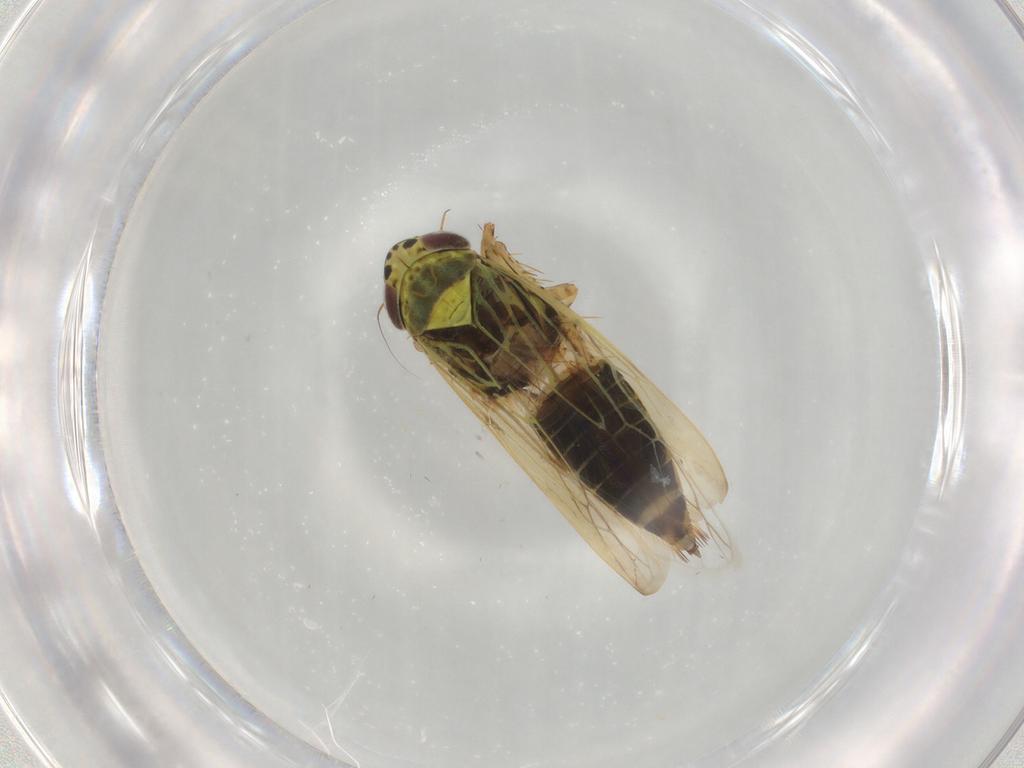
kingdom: Animalia
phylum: Arthropoda
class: Insecta
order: Hemiptera
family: Cicadellidae
